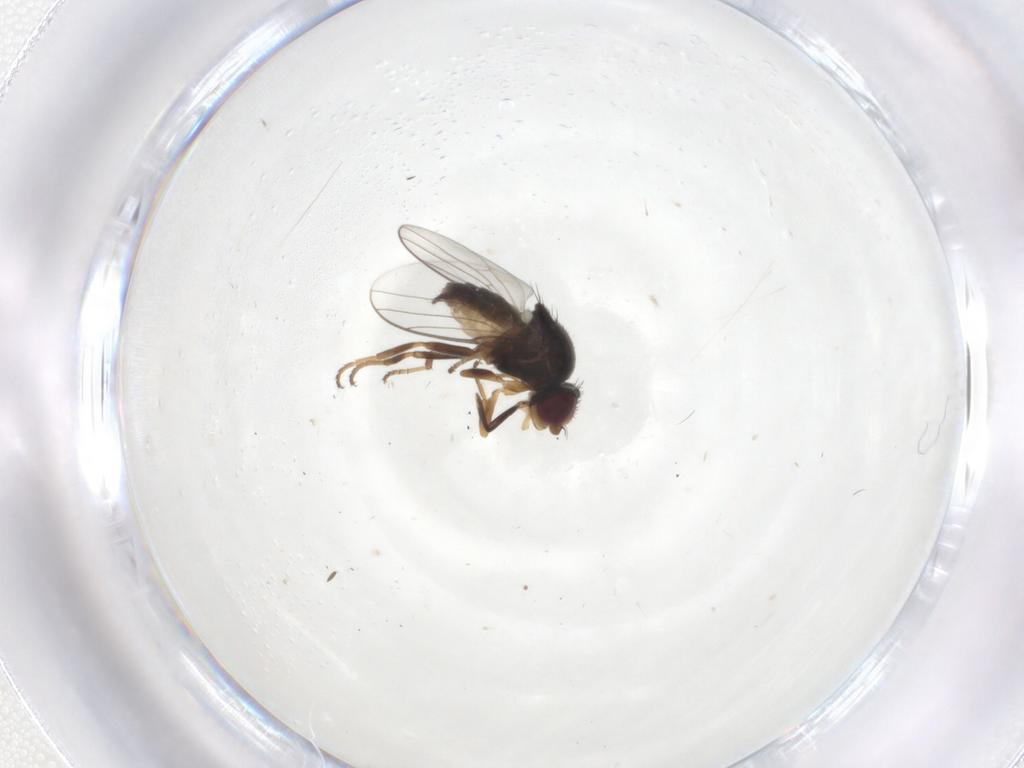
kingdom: Animalia
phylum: Arthropoda
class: Insecta
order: Diptera
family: Chloropidae
